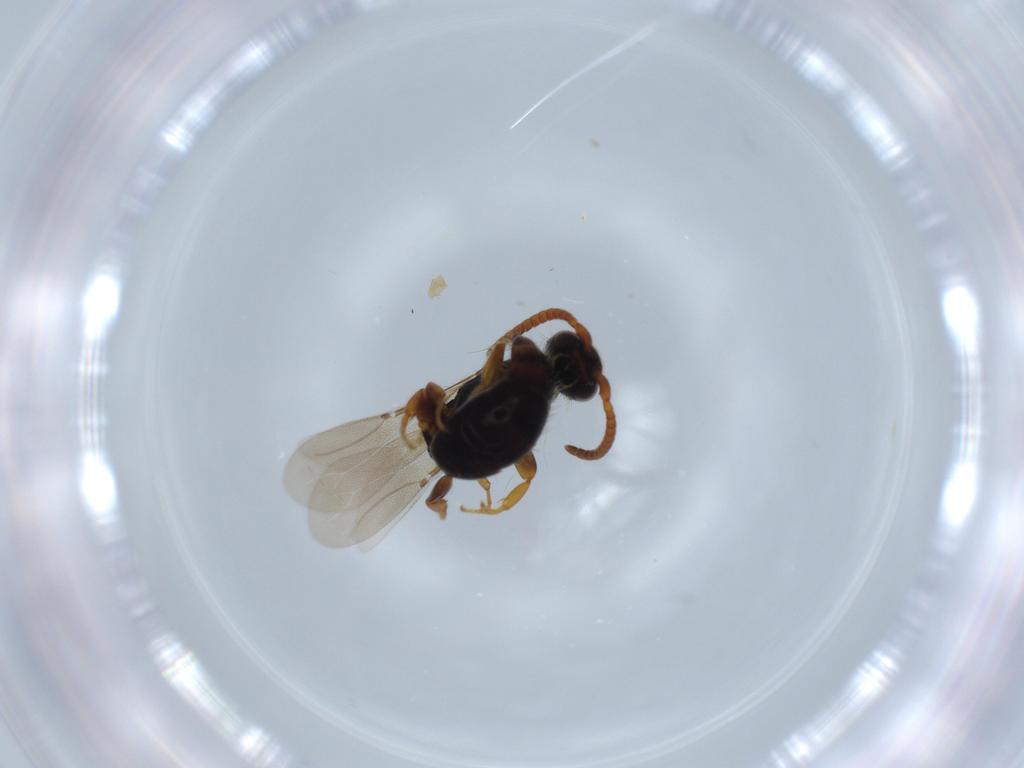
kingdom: Animalia
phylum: Arthropoda
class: Insecta
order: Hymenoptera
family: Bethylidae
